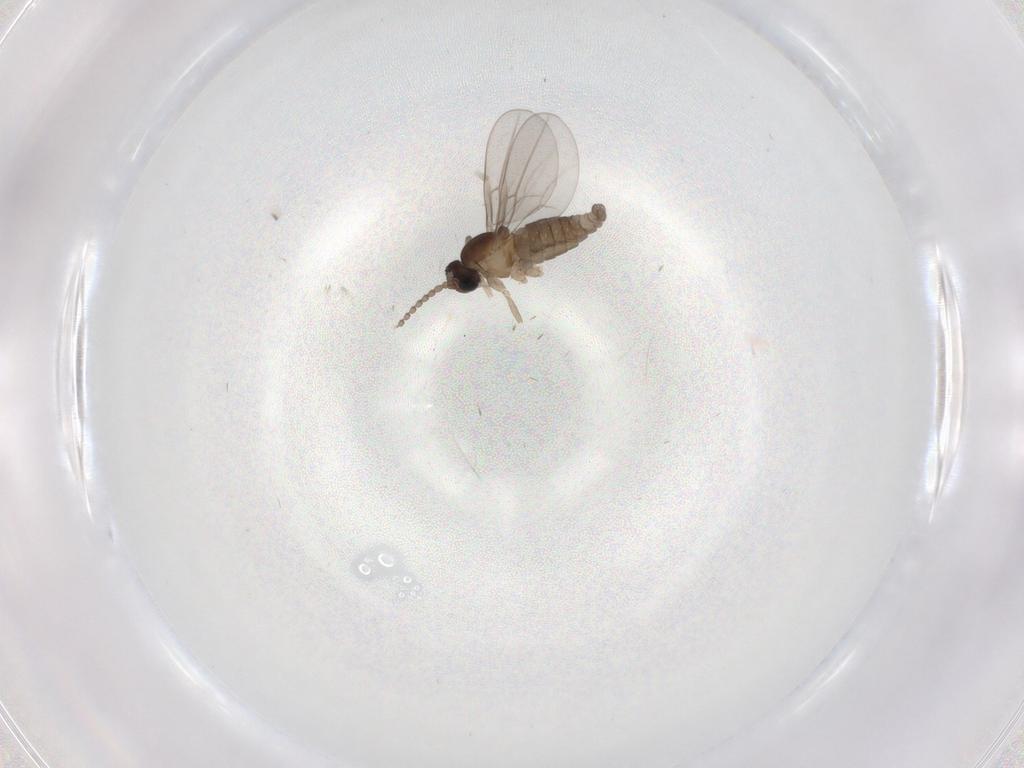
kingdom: Animalia
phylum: Arthropoda
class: Insecta
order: Diptera
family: Cecidomyiidae
